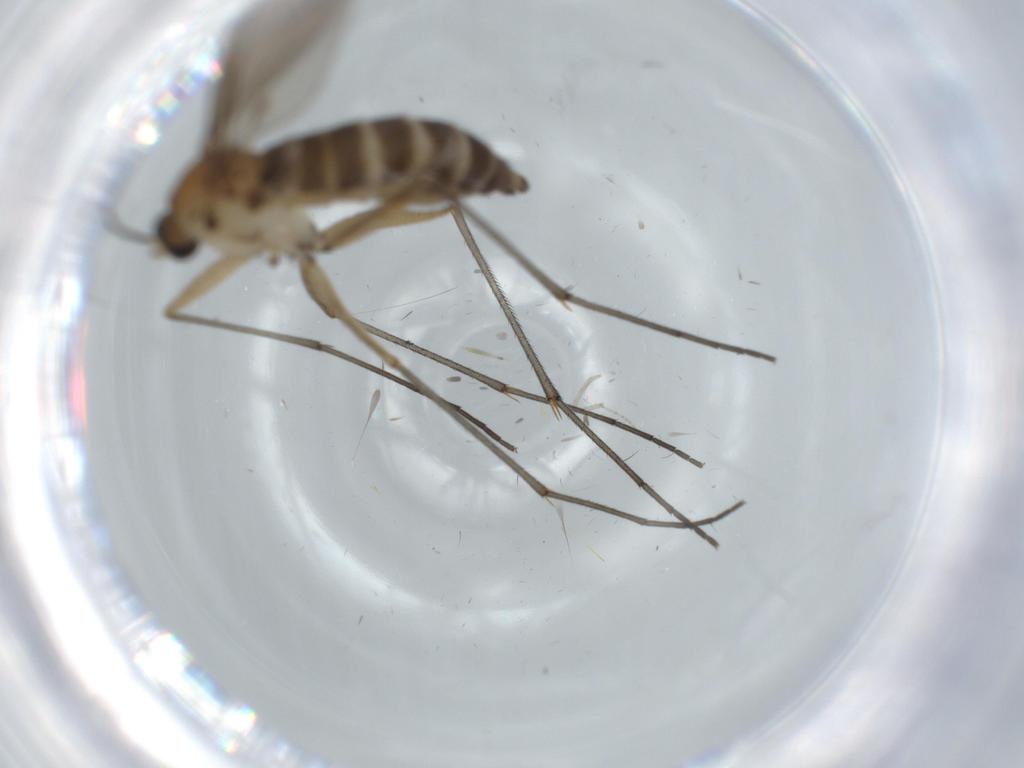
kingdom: Animalia
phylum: Arthropoda
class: Insecta
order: Diptera
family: Sciaridae
